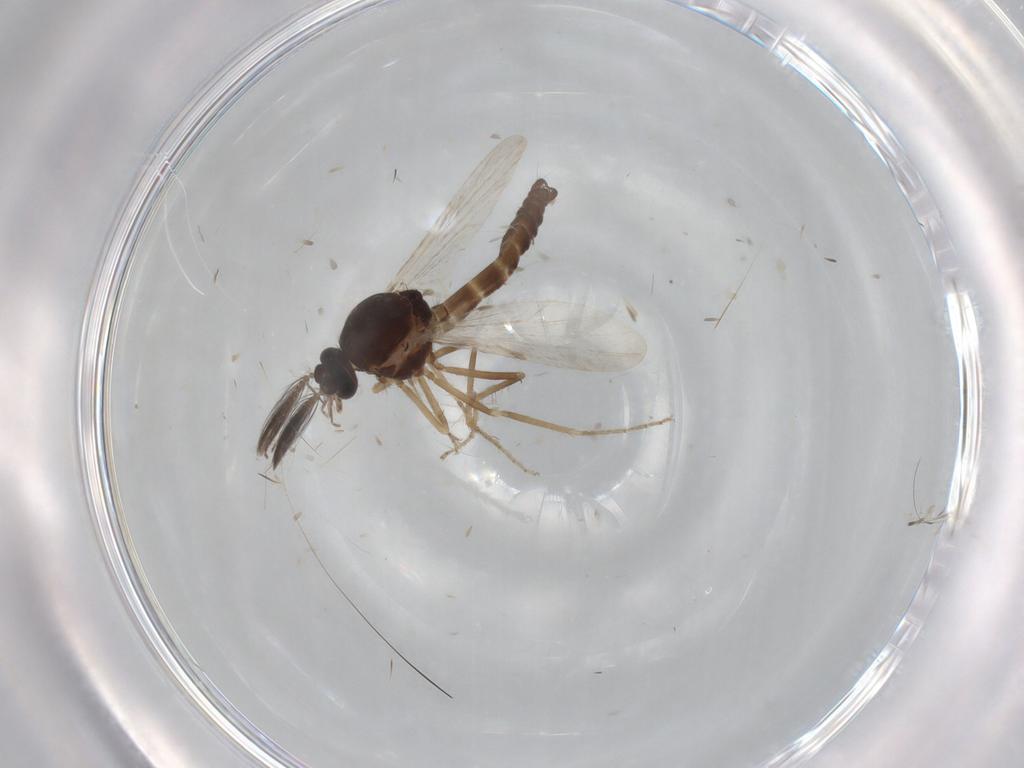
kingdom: Animalia
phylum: Arthropoda
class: Insecta
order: Diptera
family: Ceratopogonidae
